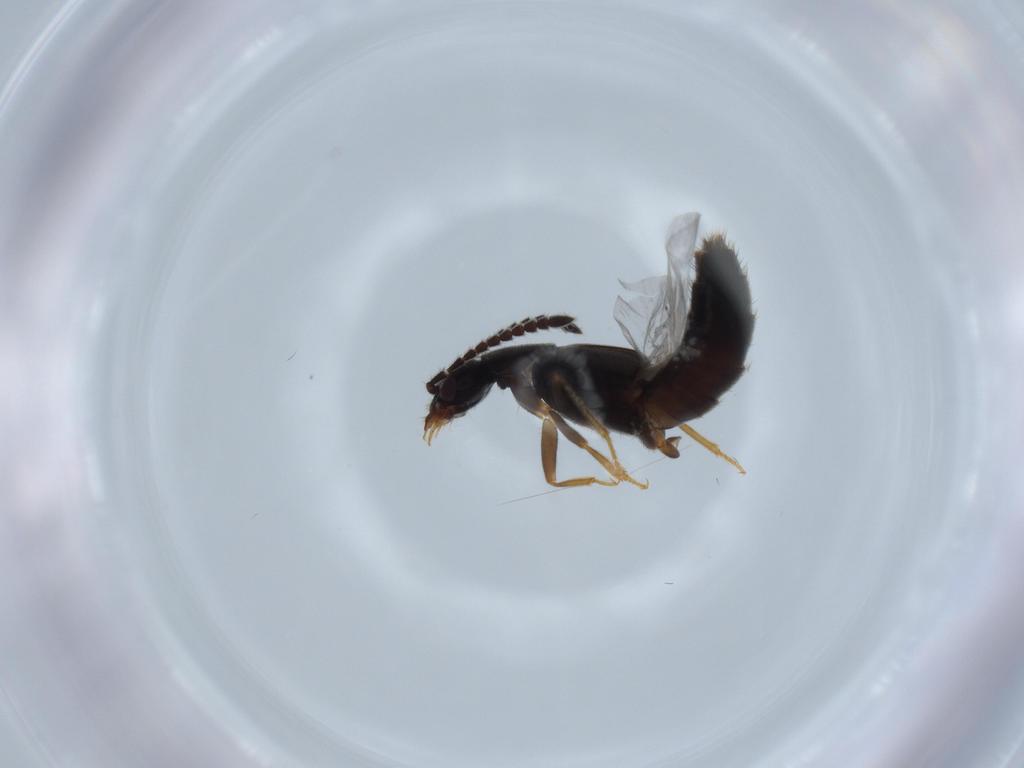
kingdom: Animalia
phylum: Arthropoda
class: Insecta
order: Coleoptera
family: Staphylinidae
